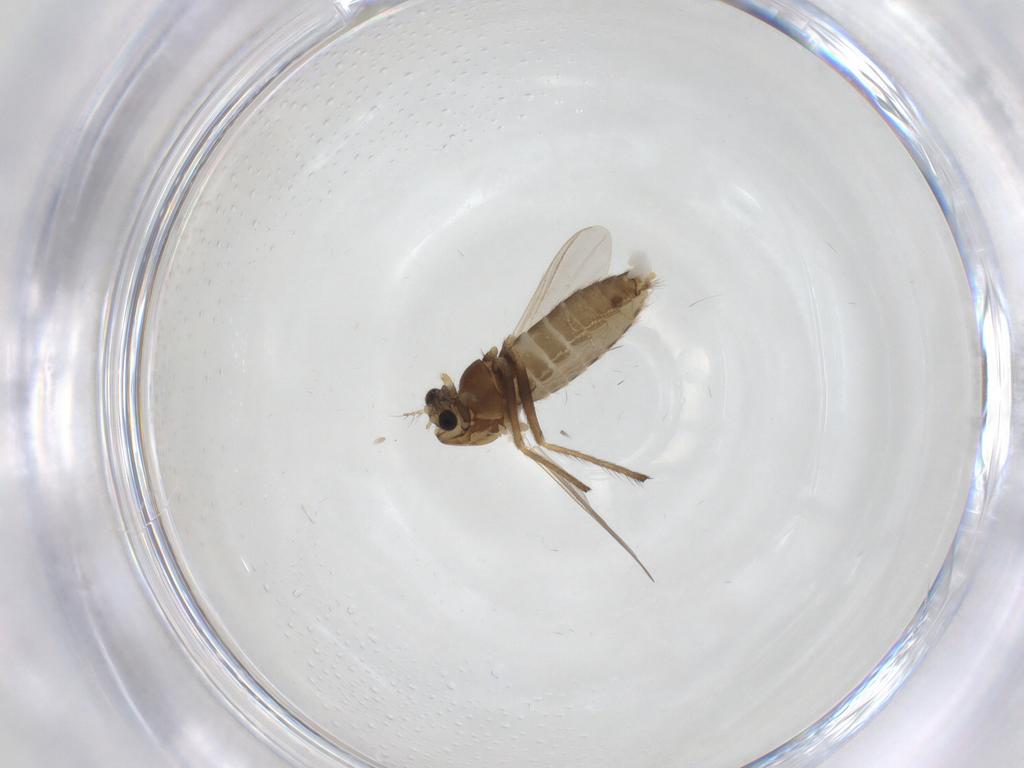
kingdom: Animalia
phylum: Arthropoda
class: Insecta
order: Diptera
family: Chironomidae
